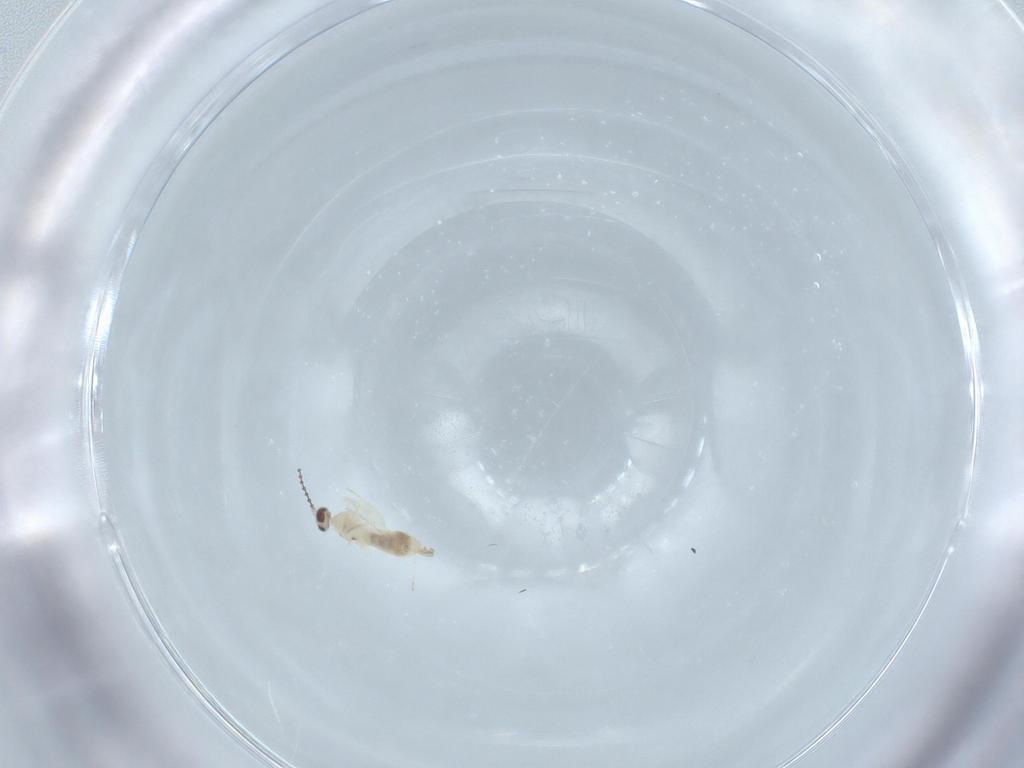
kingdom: Animalia
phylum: Arthropoda
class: Insecta
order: Diptera
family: Cecidomyiidae
